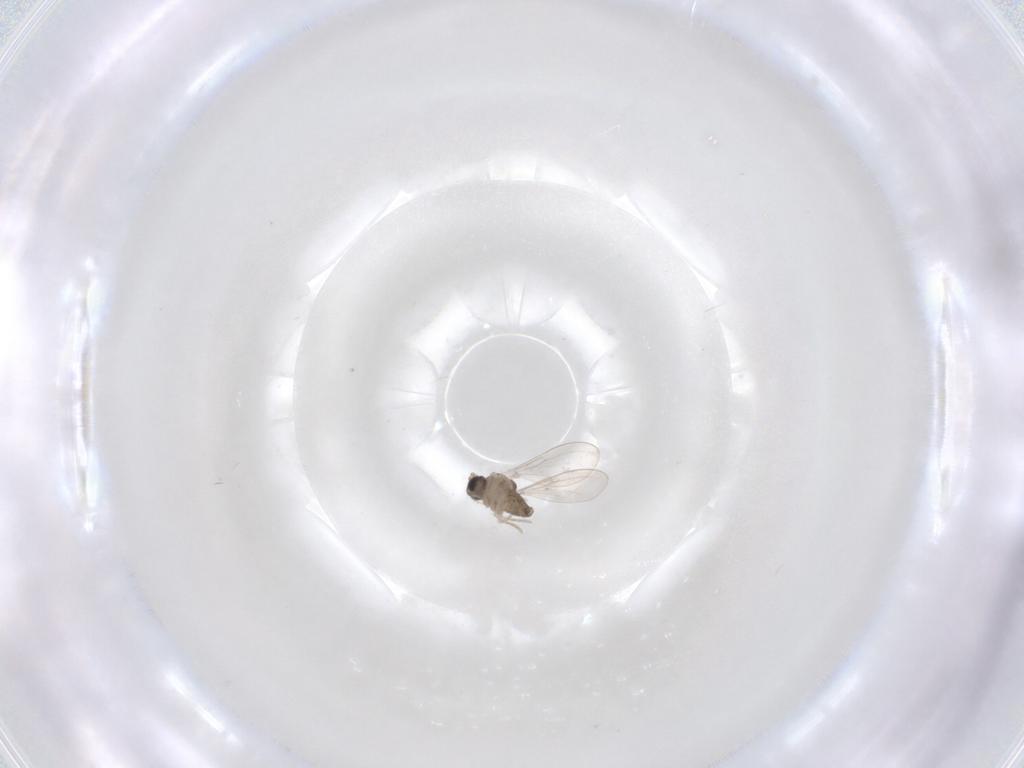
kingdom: Animalia
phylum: Arthropoda
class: Insecta
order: Diptera
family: Cecidomyiidae
